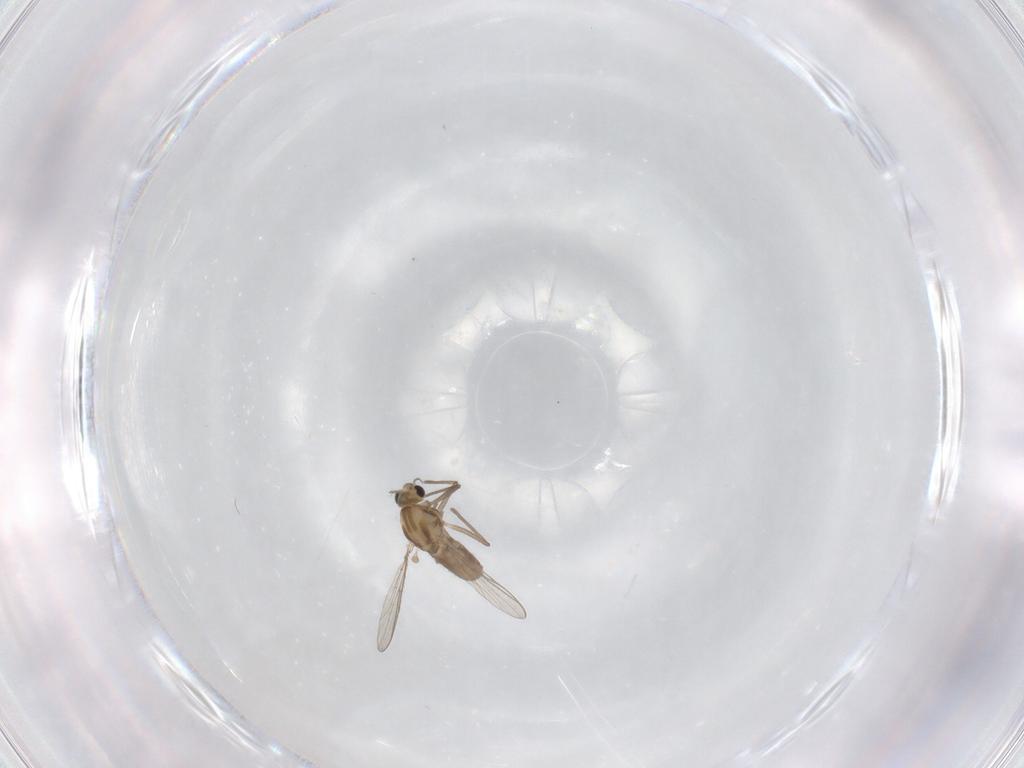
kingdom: Animalia
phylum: Arthropoda
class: Insecta
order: Diptera
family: Chironomidae
